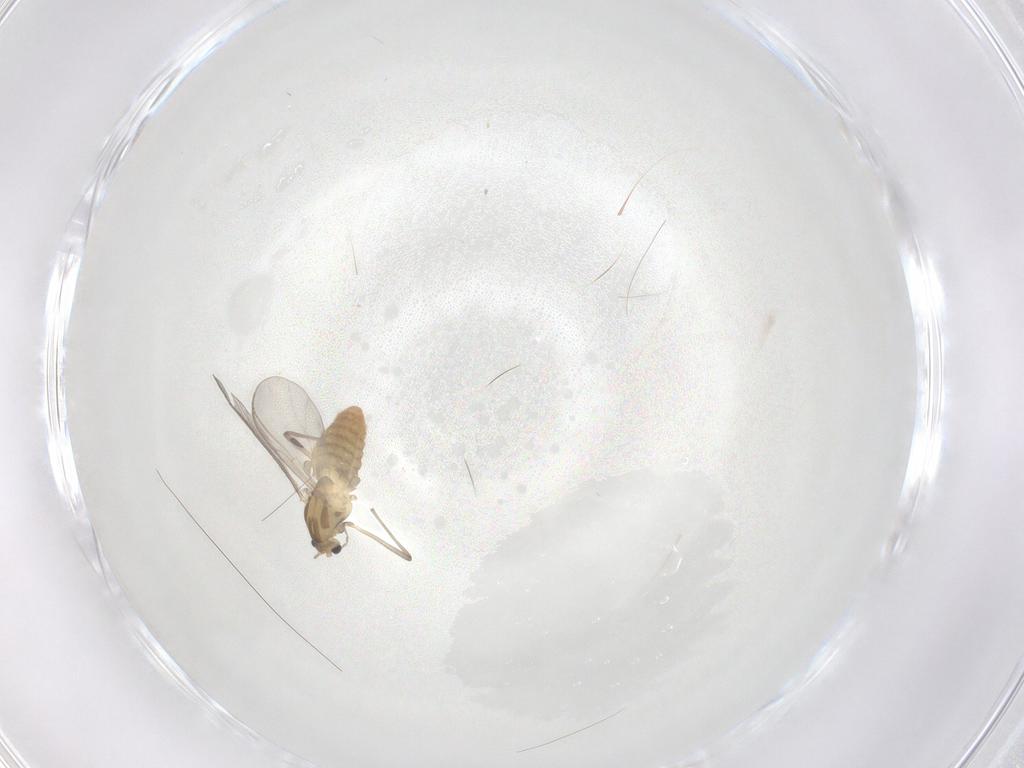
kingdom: Animalia
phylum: Arthropoda
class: Insecta
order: Diptera
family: Chironomidae
